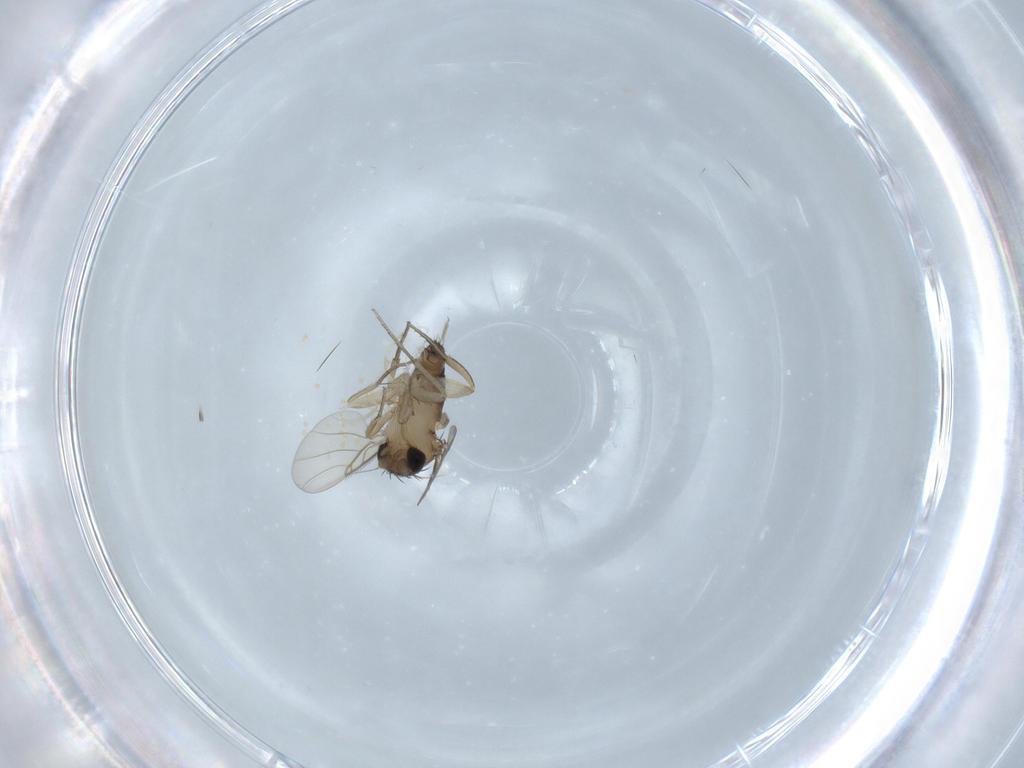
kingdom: Animalia
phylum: Arthropoda
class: Insecta
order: Diptera
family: Phoridae
